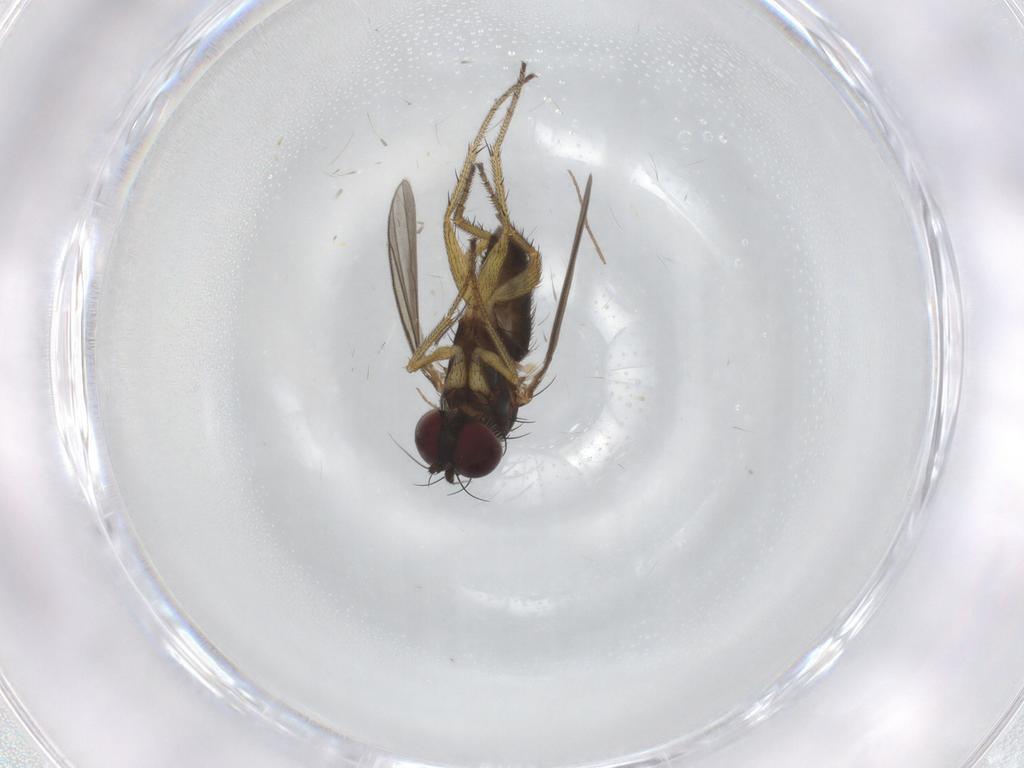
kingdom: Animalia
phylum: Arthropoda
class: Insecta
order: Diptera
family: Chironomidae
